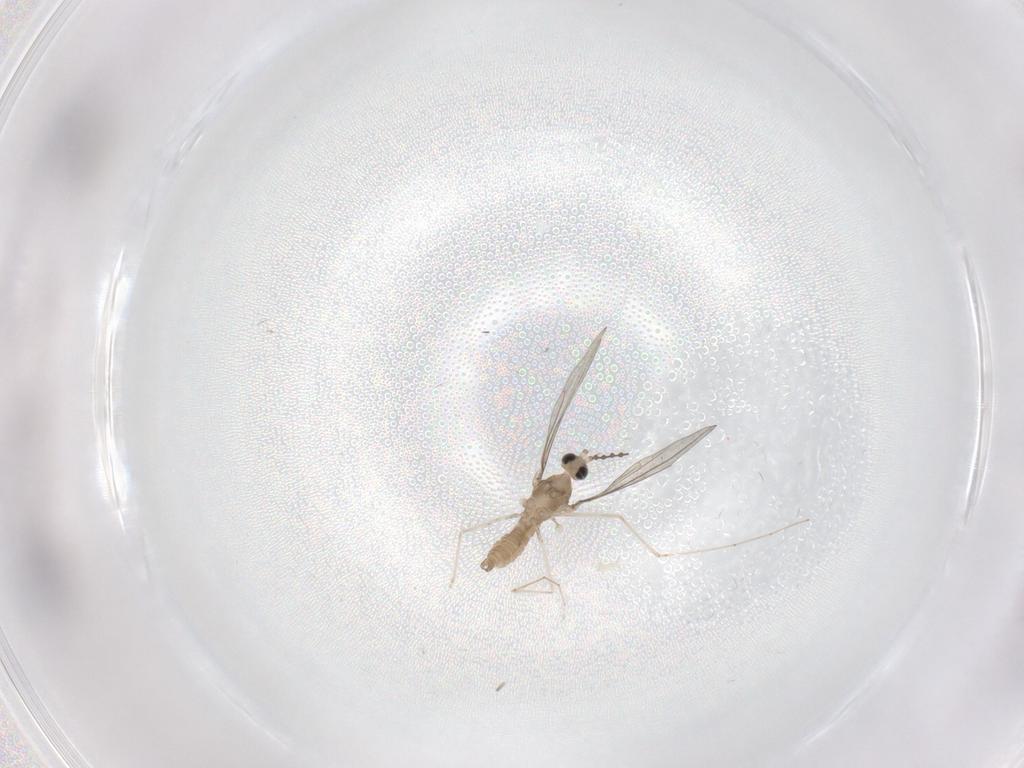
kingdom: Animalia
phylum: Arthropoda
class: Insecta
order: Diptera
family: Cecidomyiidae
